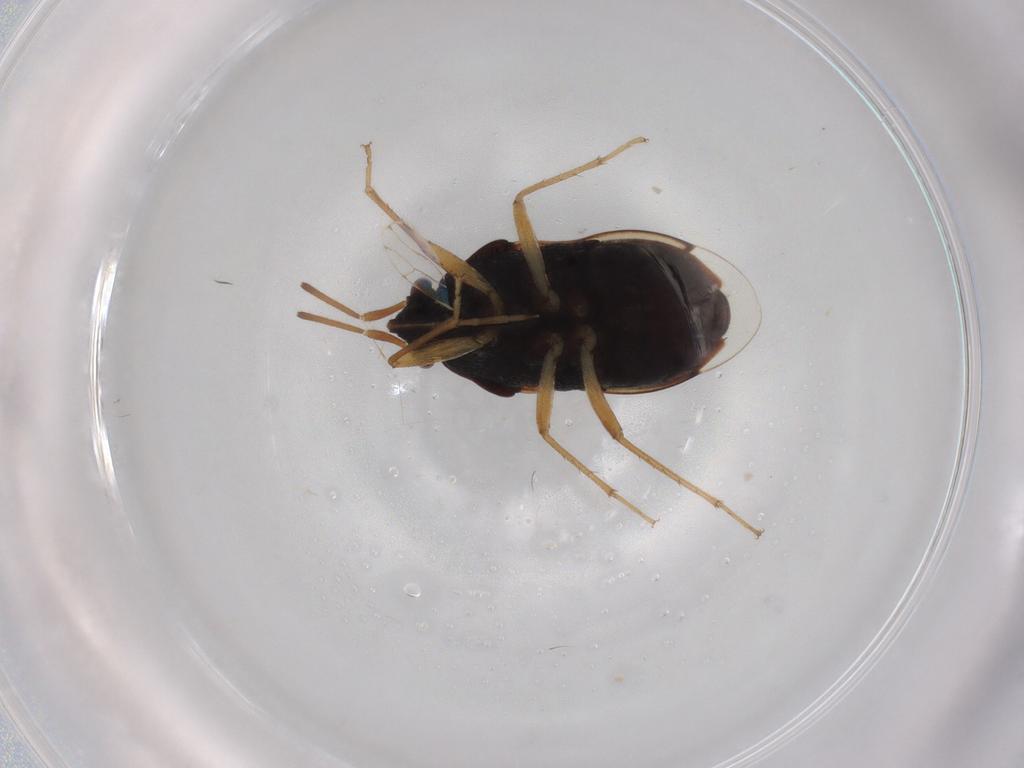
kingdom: Animalia
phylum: Arthropoda
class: Insecta
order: Hemiptera
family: Rhyparochromidae
